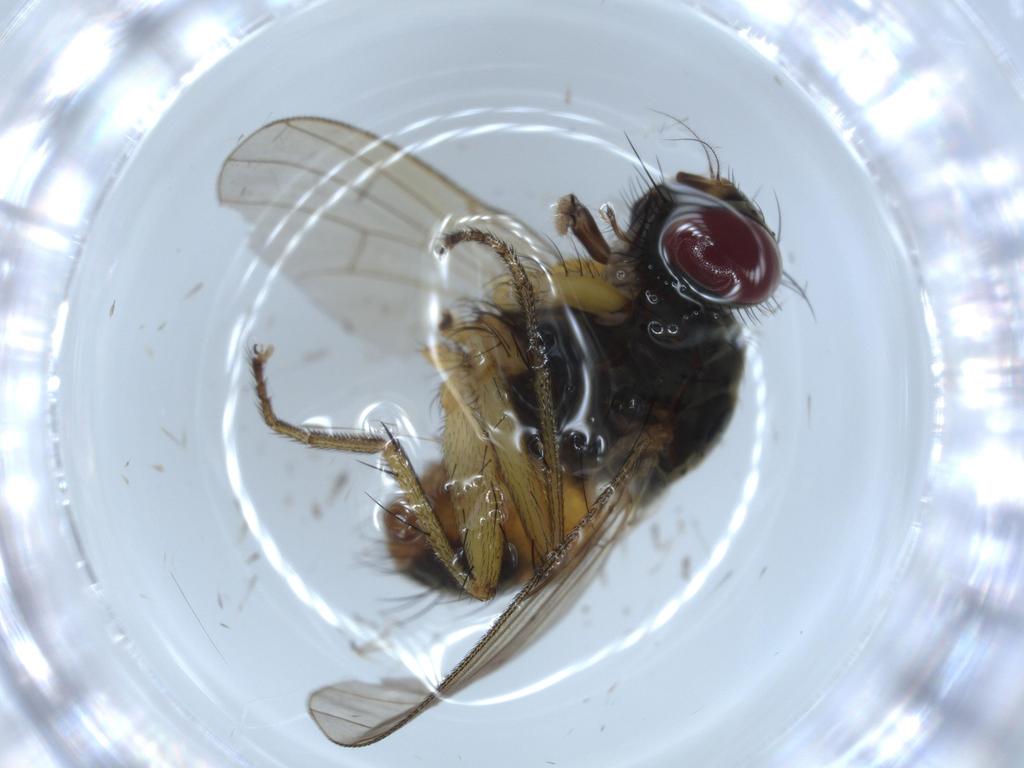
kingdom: Animalia
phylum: Arthropoda
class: Insecta
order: Diptera
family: Muscidae
